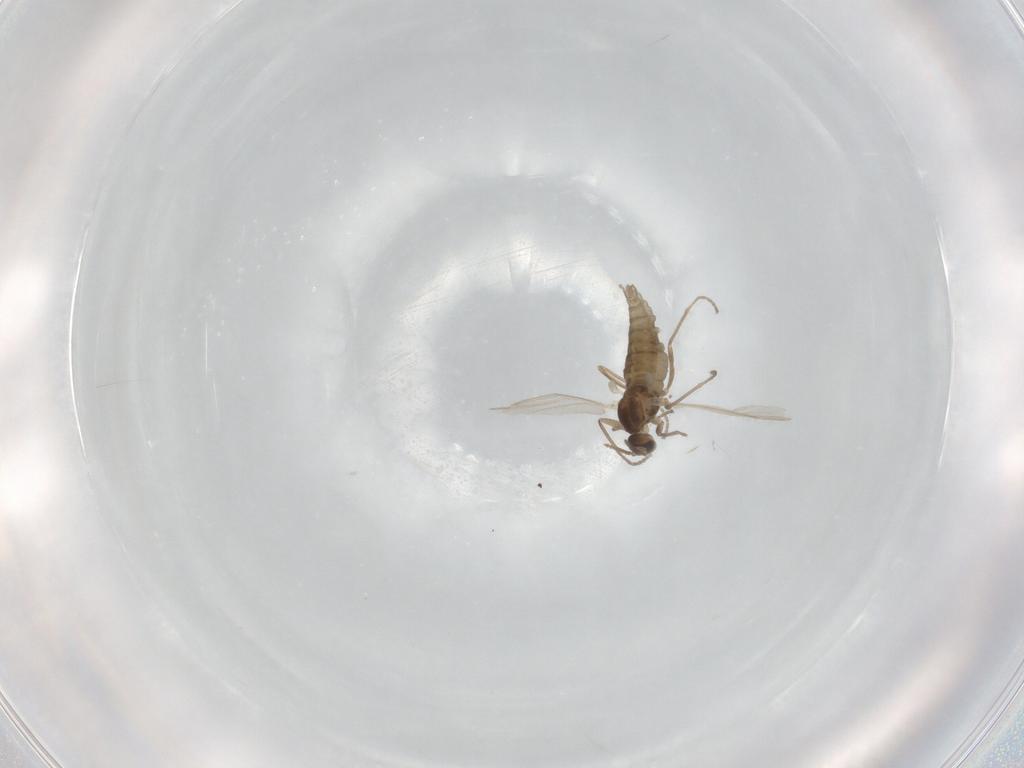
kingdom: Animalia
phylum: Arthropoda
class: Insecta
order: Diptera
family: Cecidomyiidae
